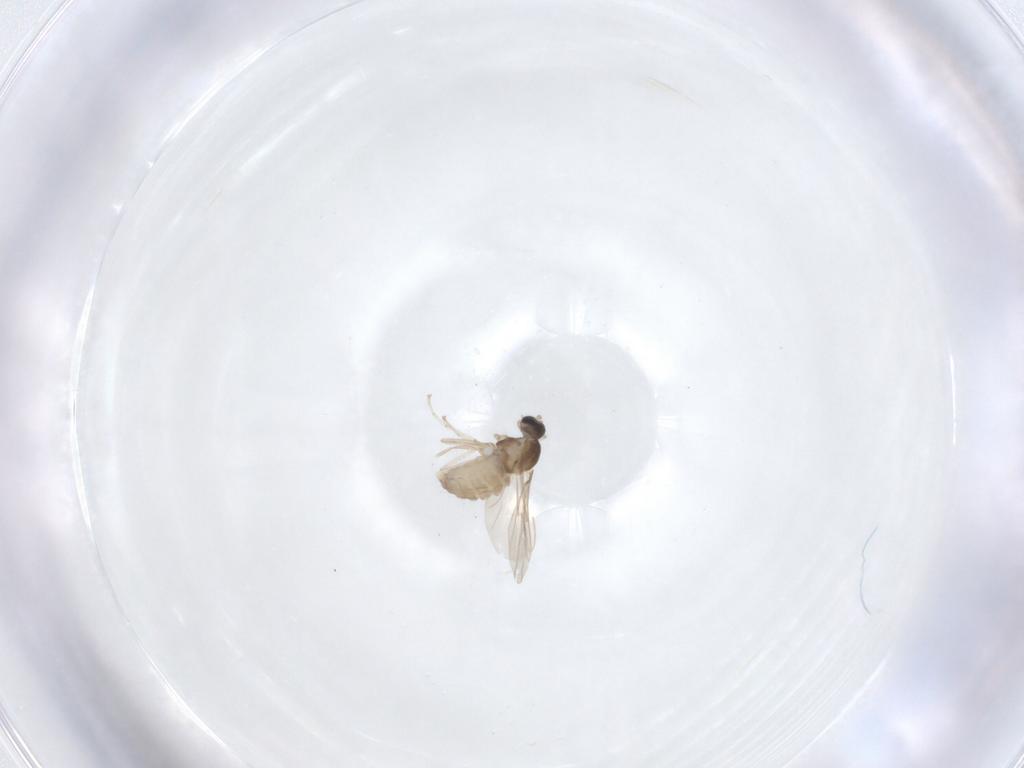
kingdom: Animalia
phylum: Arthropoda
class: Insecta
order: Diptera
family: Cecidomyiidae
